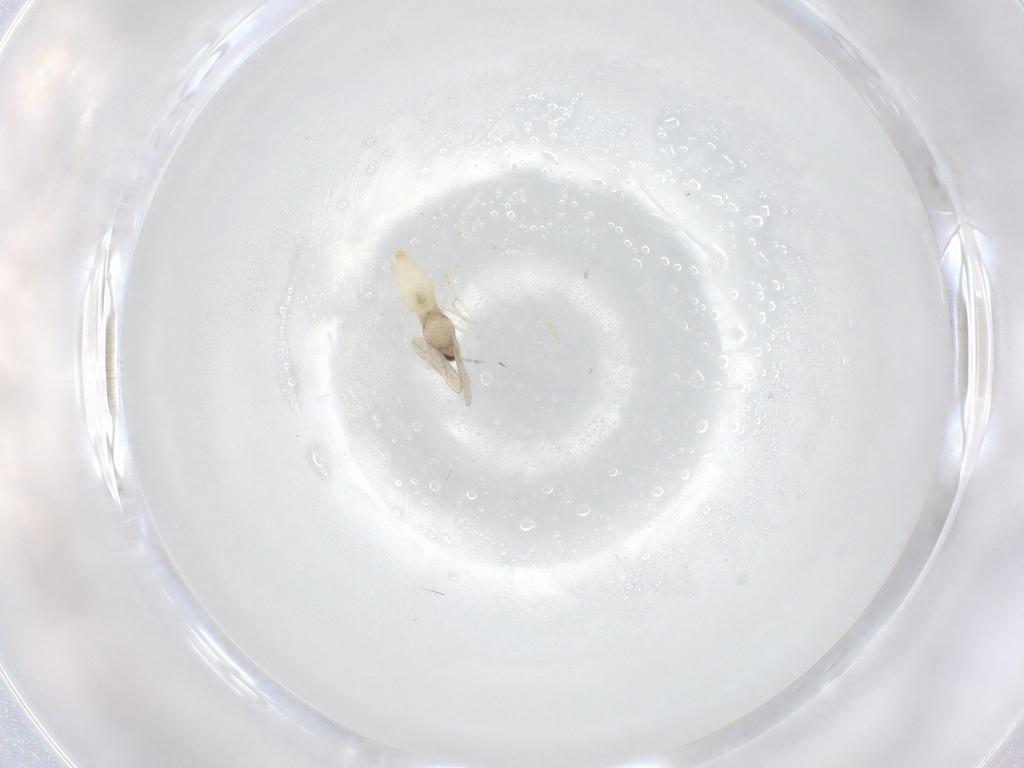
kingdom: Animalia
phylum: Arthropoda
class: Insecta
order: Diptera
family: Cecidomyiidae
